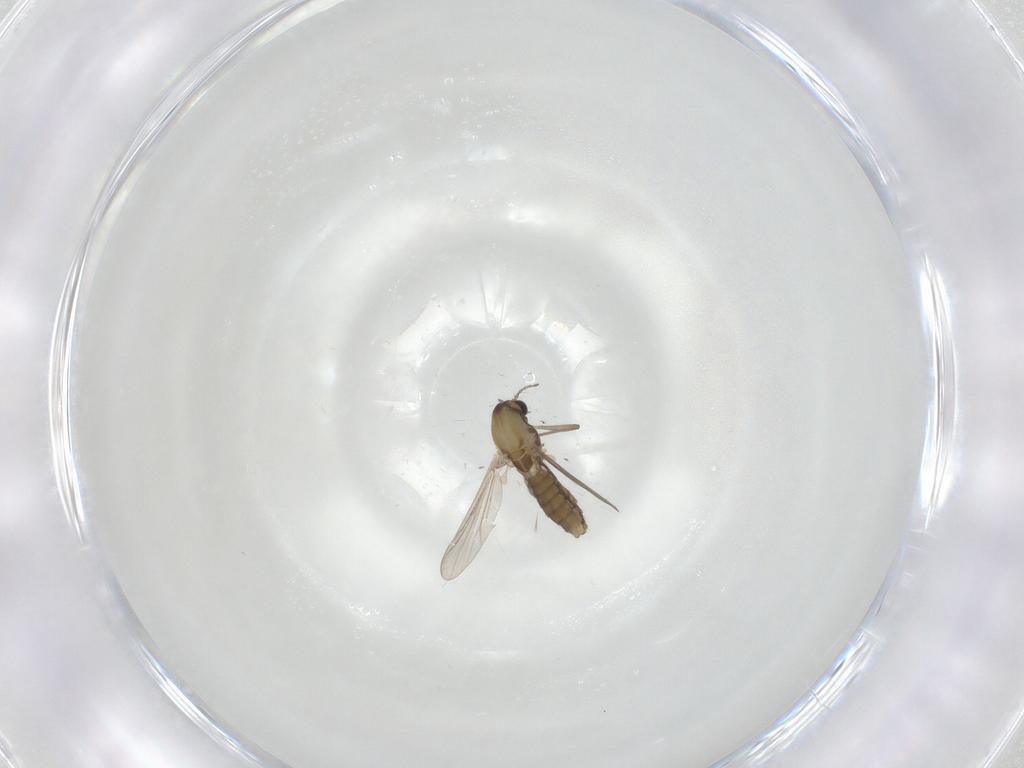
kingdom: Animalia
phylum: Arthropoda
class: Insecta
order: Diptera
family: Chironomidae
